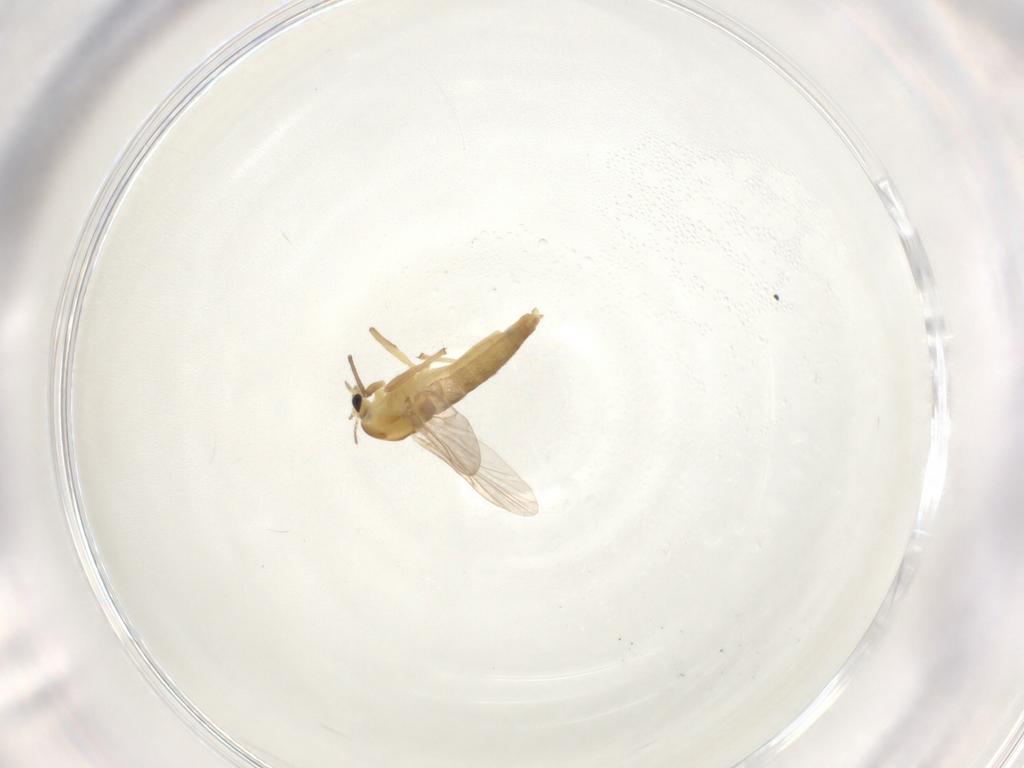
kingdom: Animalia
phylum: Arthropoda
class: Insecta
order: Diptera
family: Chironomidae
